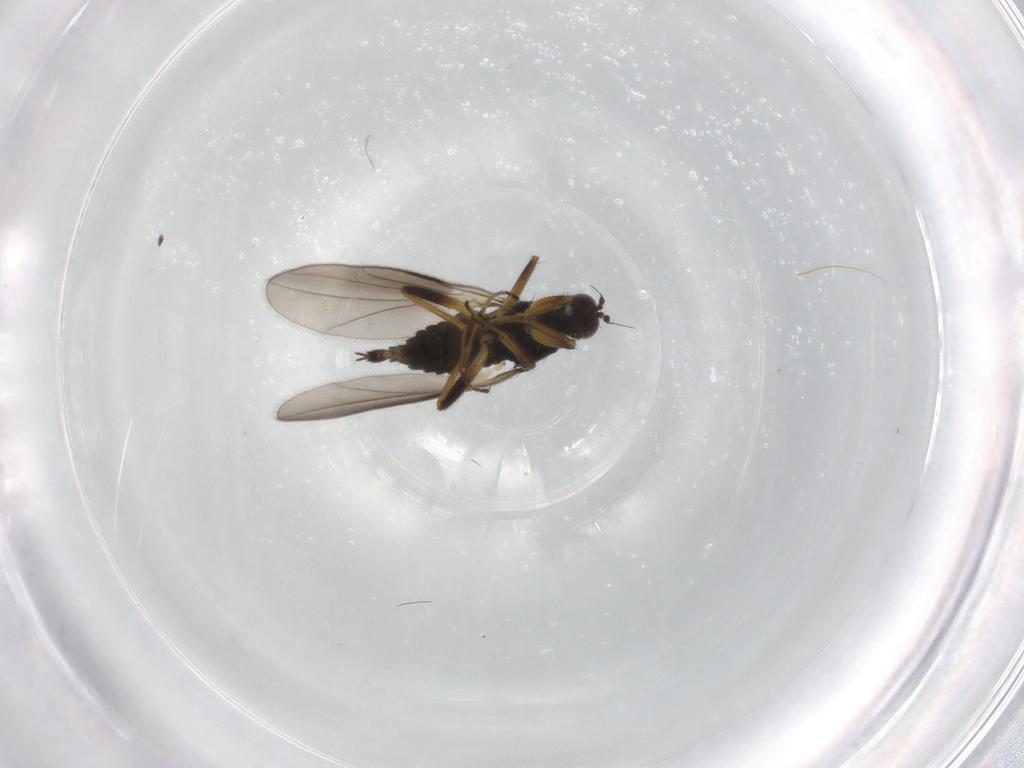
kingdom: Animalia
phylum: Arthropoda
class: Insecta
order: Diptera
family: Hybotidae
